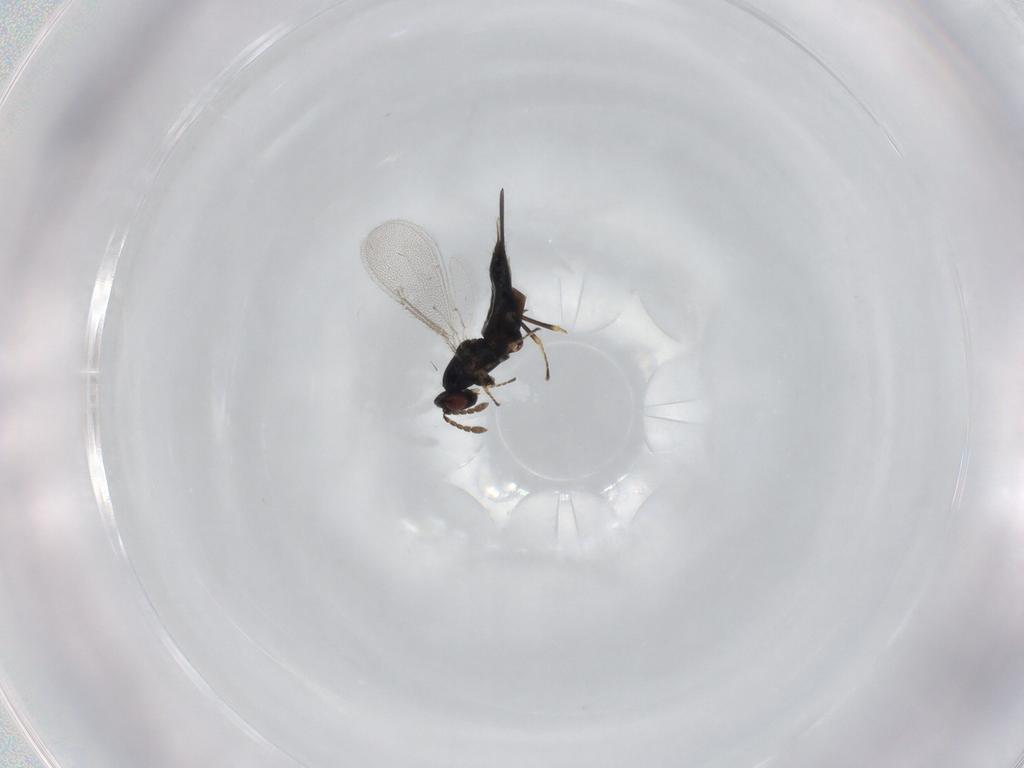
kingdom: Animalia
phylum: Arthropoda
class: Insecta
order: Hymenoptera
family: Eulophidae
